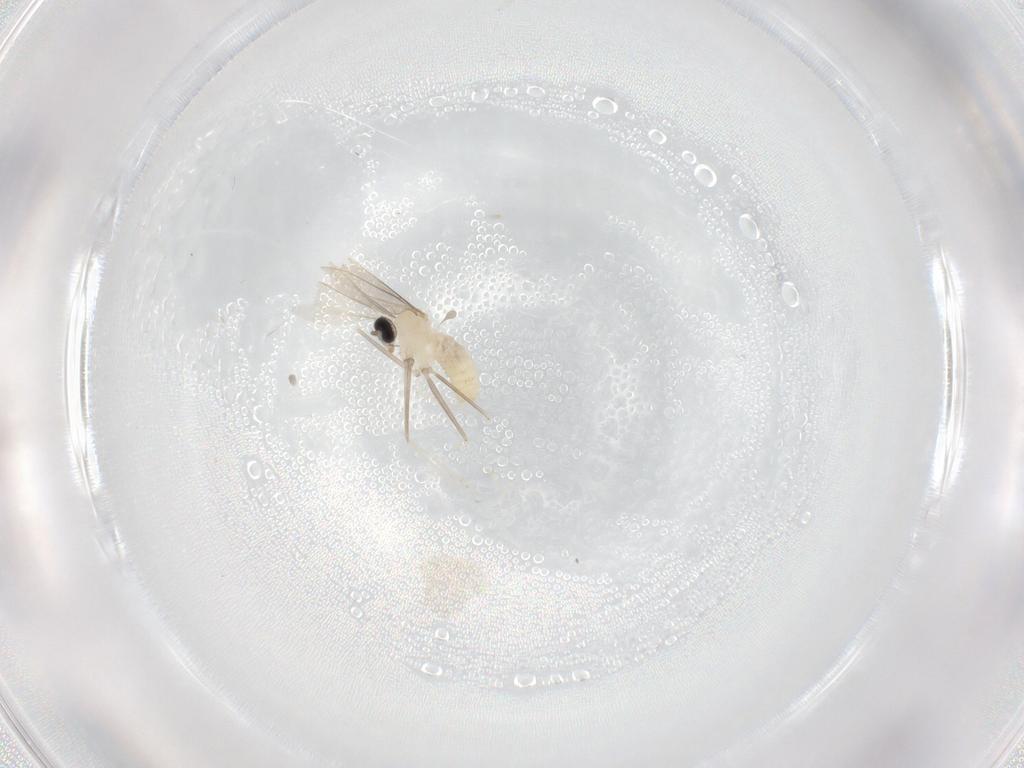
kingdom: Animalia
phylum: Arthropoda
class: Insecta
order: Diptera
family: Cecidomyiidae
